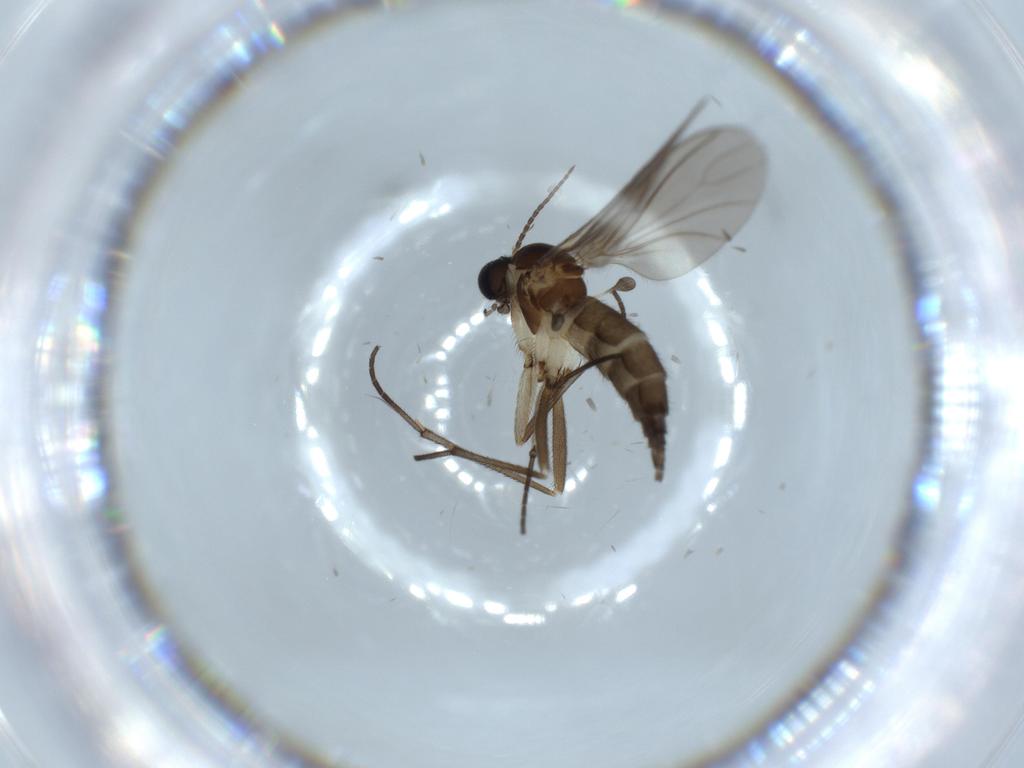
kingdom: Animalia
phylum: Arthropoda
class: Insecta
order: Diptera
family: Sciaridae
